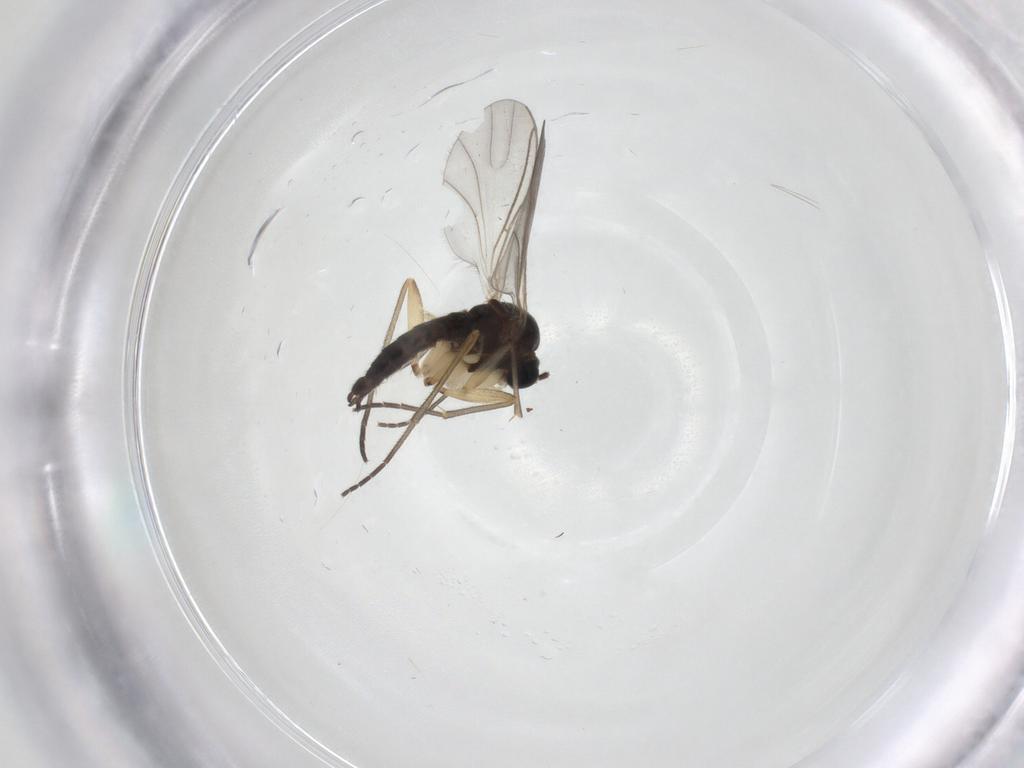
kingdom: Animalia
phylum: Arthropoda
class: Insecta
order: Diptera
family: Sciaridae
